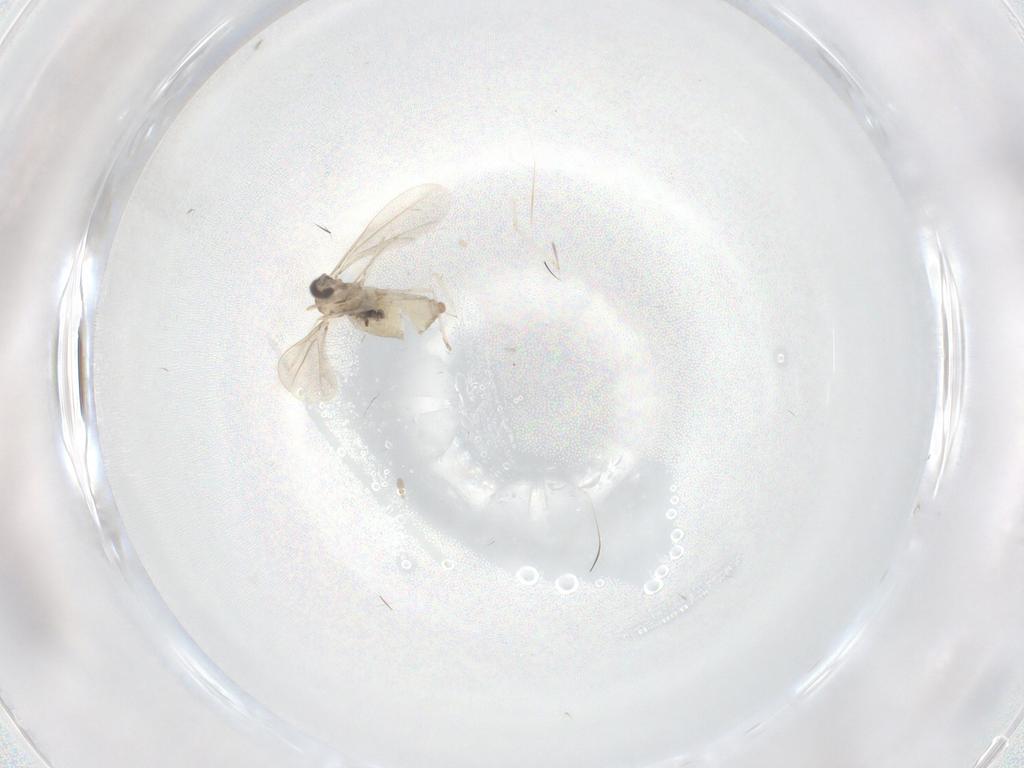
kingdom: Animalia
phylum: Arthropoda
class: Insecta
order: Diptera
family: Cecidomyiidae
